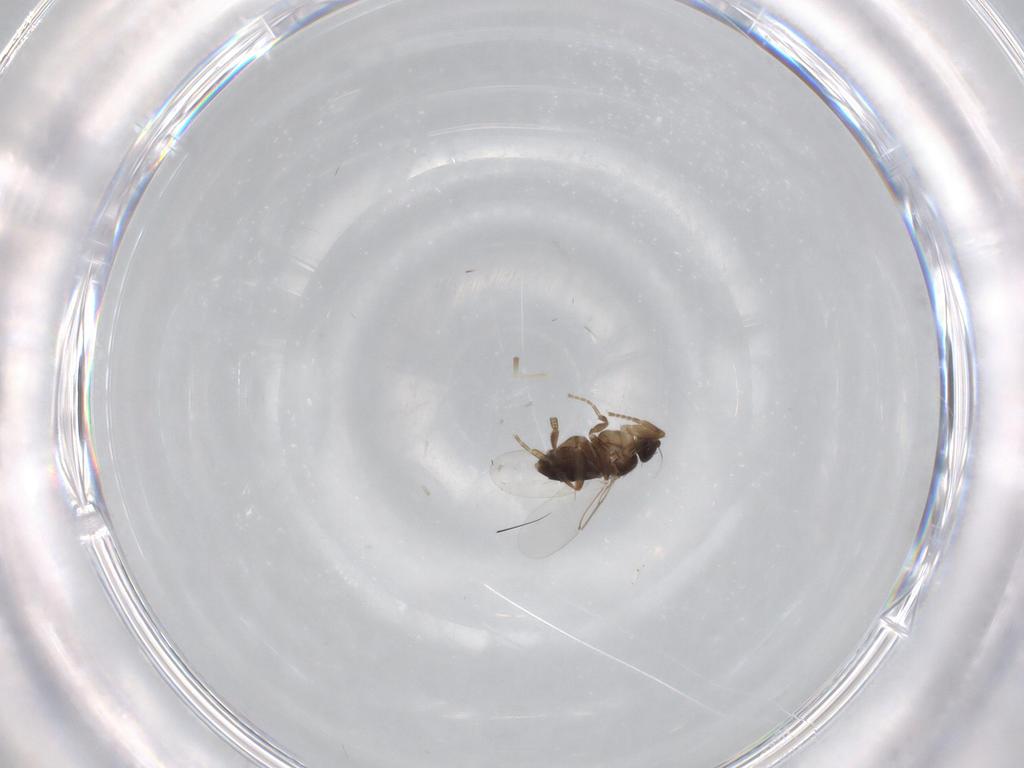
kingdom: Animalia
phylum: Arthropoda
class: Insecta
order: Diptera
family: Phoridae
